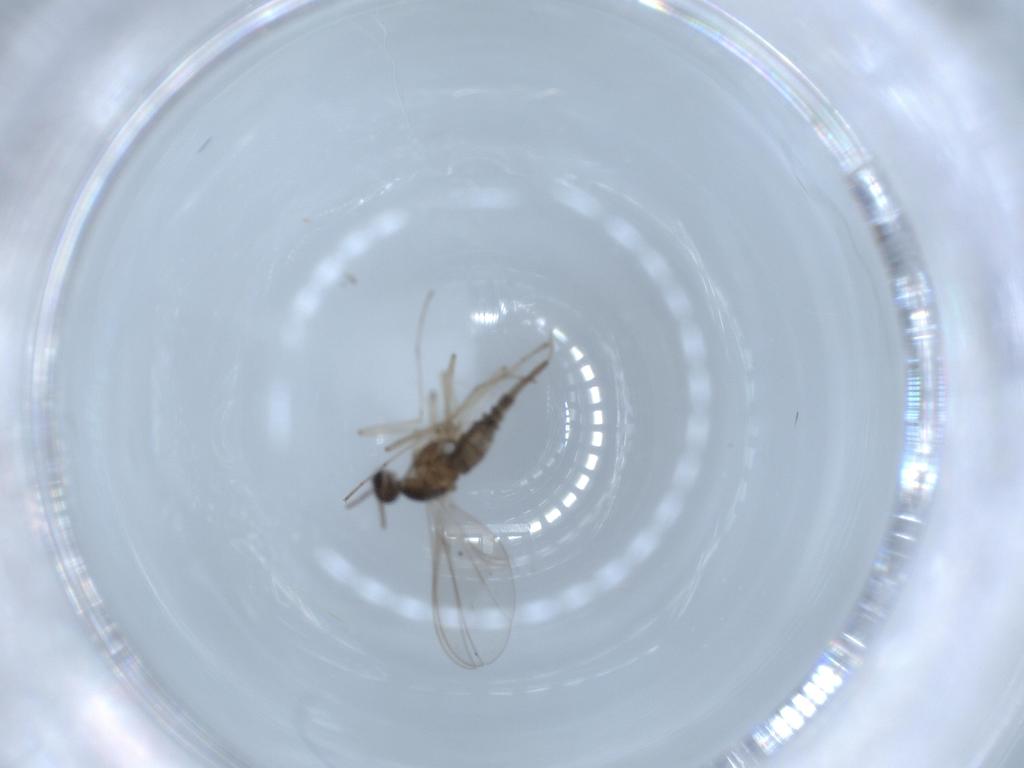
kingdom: Animalia
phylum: Arthropoda
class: Insecta
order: Diptera
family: Cecidomyiidae
